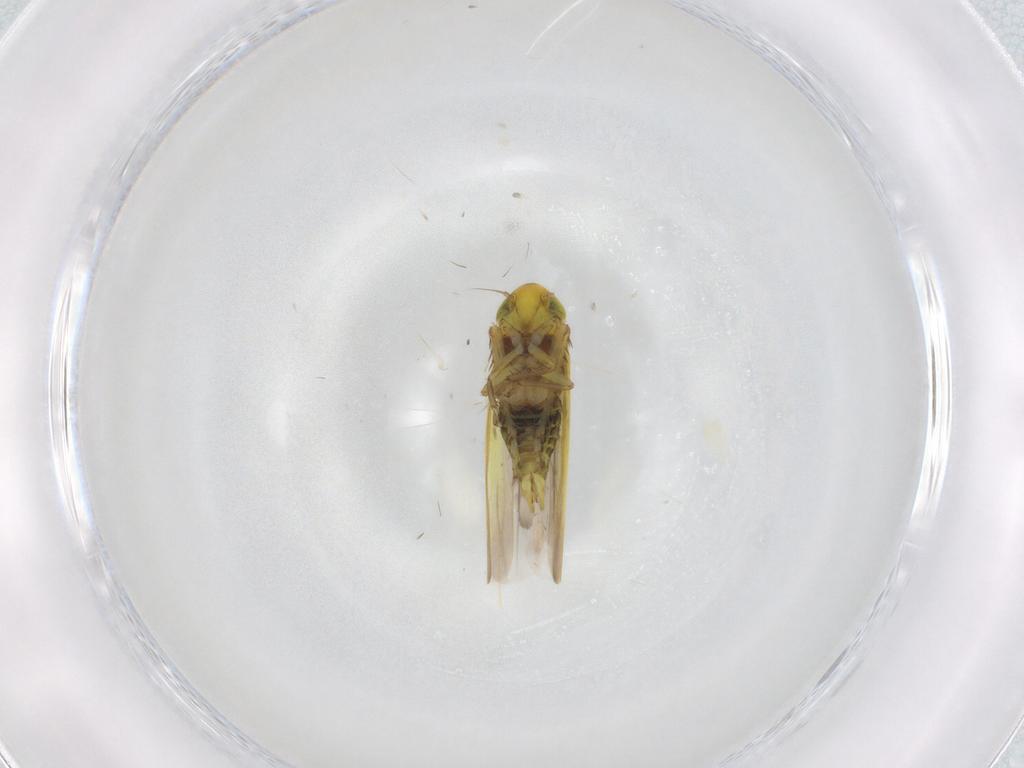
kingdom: Animalia
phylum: Arthropoda
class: Insecta
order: Hemiptera
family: Cicadellidae
